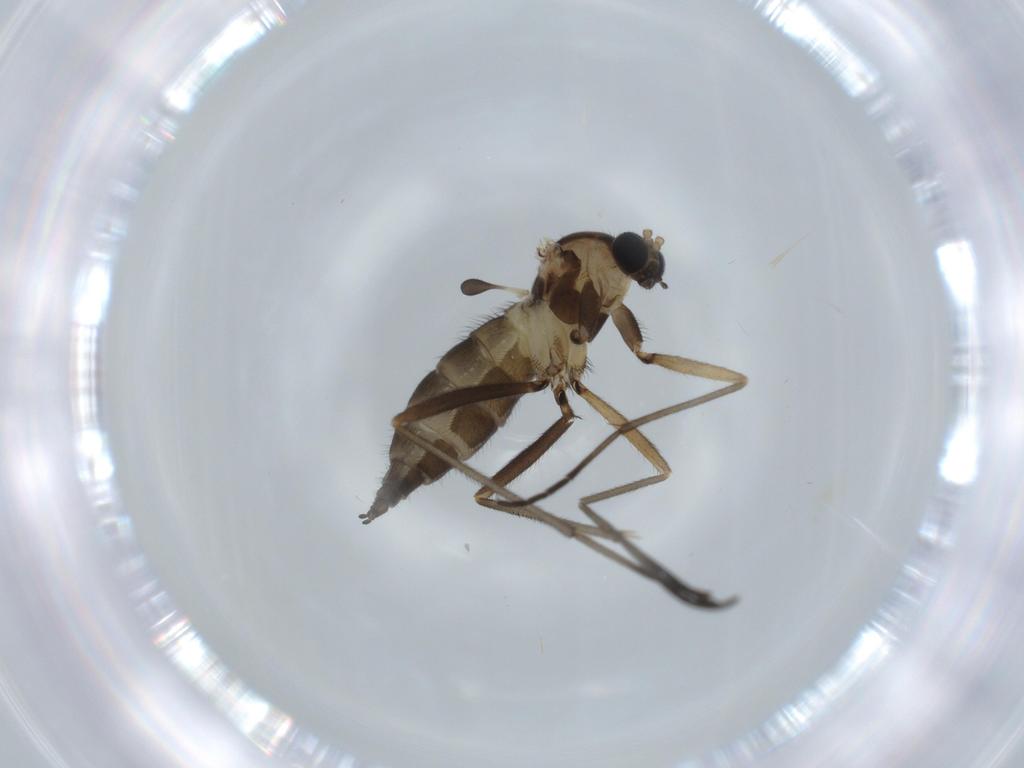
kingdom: Animalia
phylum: Arthropoda
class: Insecta
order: Diptera
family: Sciaridae
